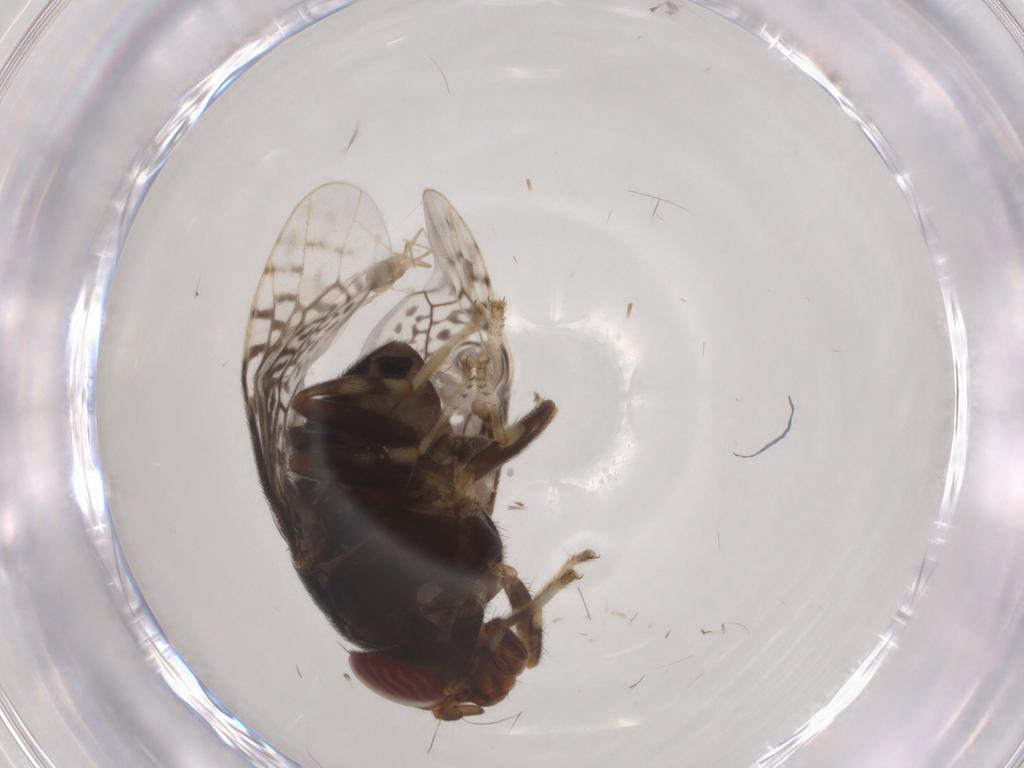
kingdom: Animalia
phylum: Arthropoda
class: Insecta
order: Diptera
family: Platystomatidae
